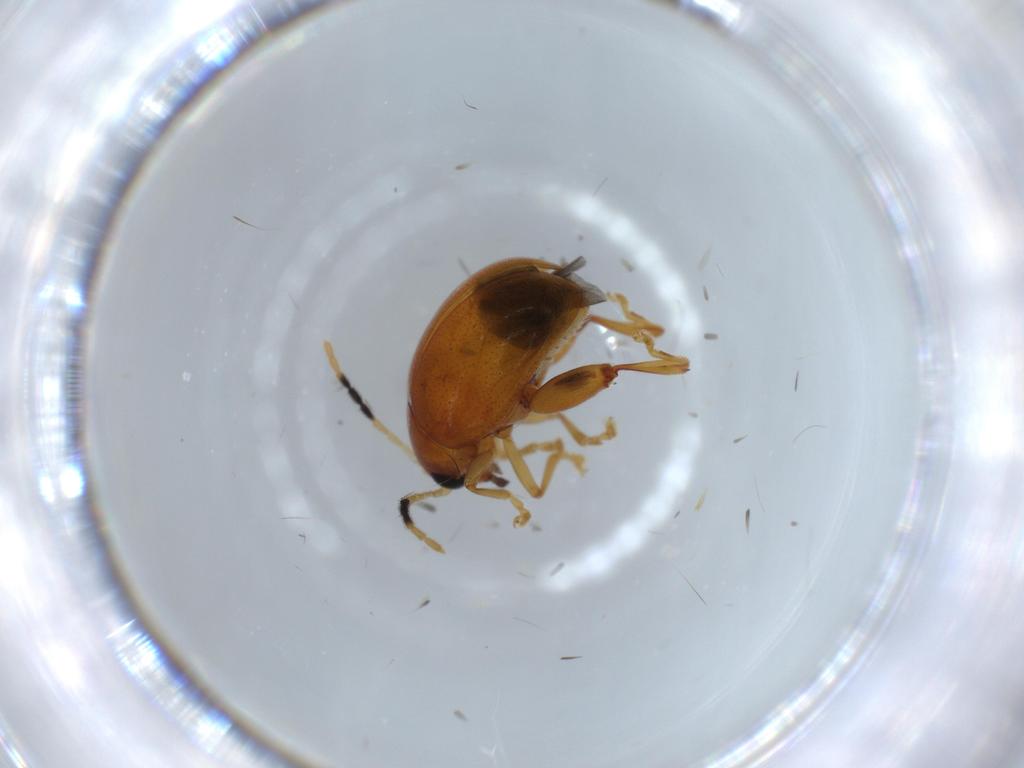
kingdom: Animalia
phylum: Arthropoda
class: Insecta
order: Coleoptera
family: Chrysomelidae
